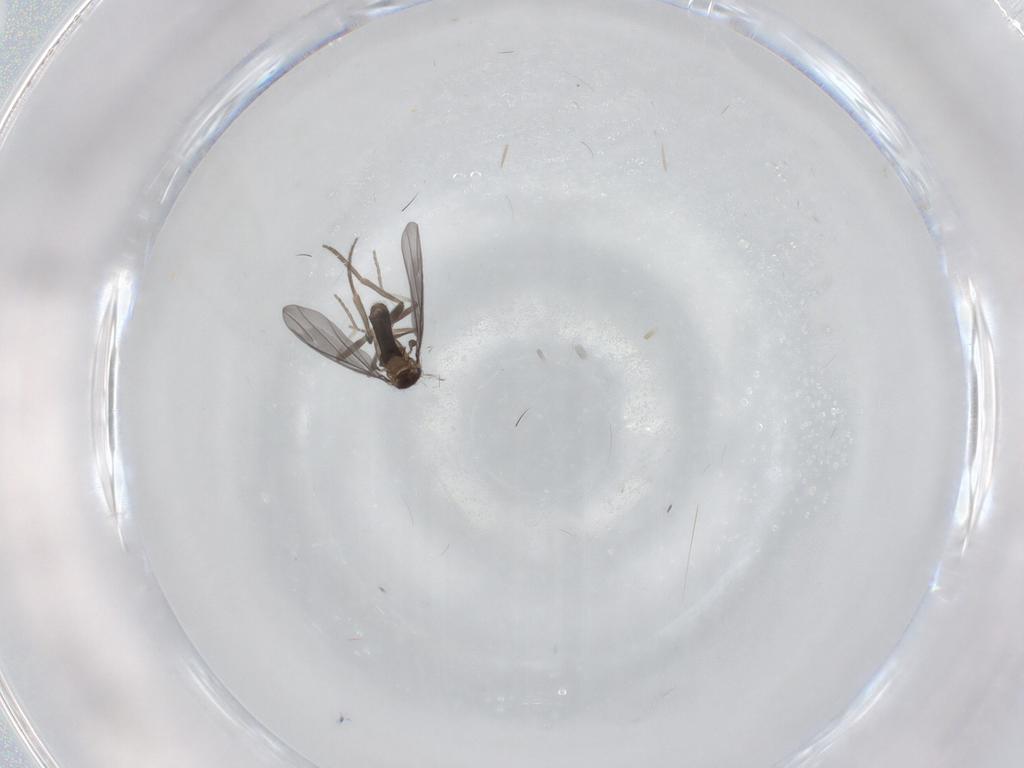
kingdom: Animalia
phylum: Arthropoda
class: Insecta
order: Diptera
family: Phoridae
